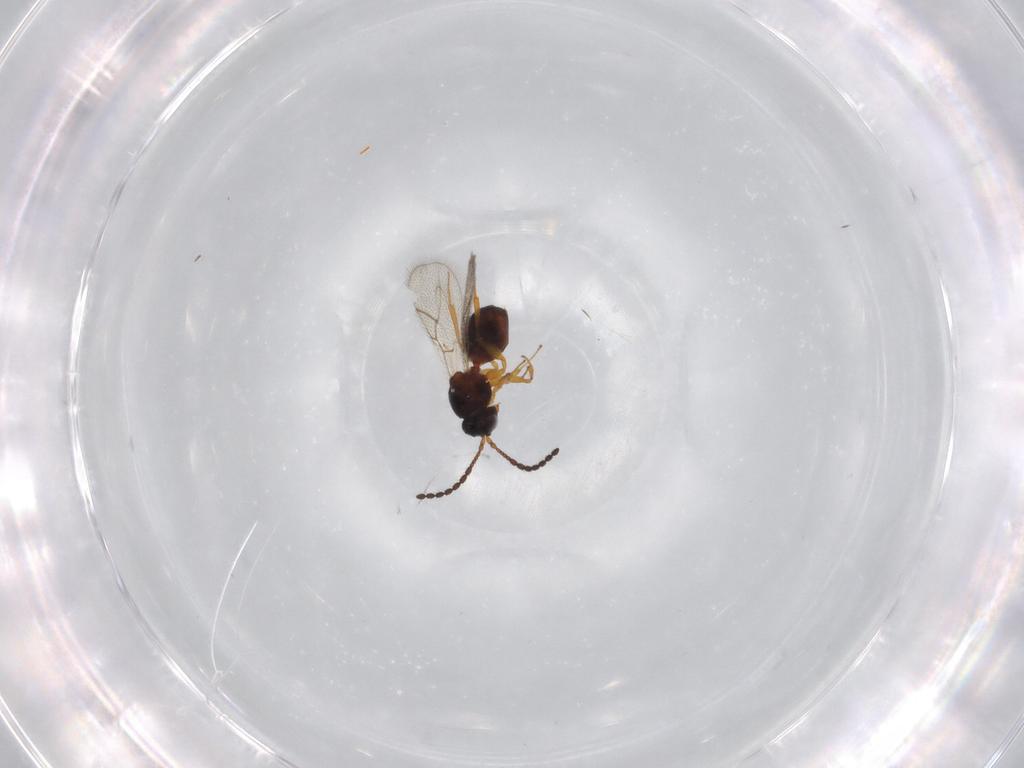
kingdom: Animalia
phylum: Arthropoda
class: Insecta
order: Hymenoptera
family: Figitidae
